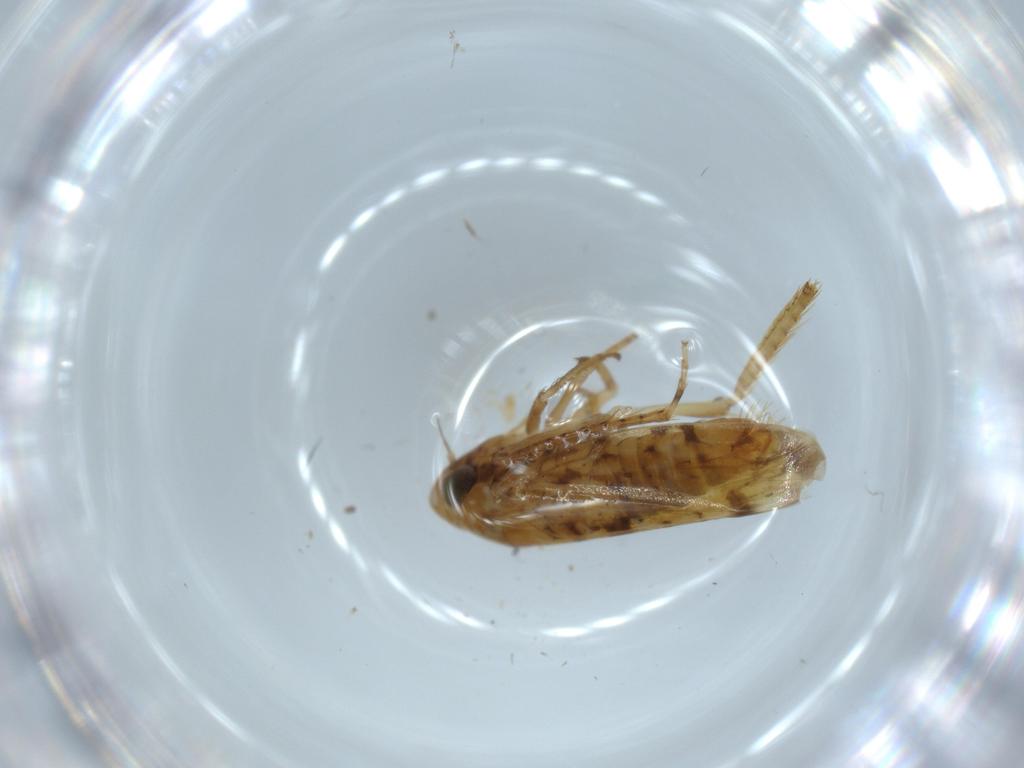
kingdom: Animalia
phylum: Arthropoda
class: Insecta
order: Hemiptera
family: Cicadellidae
